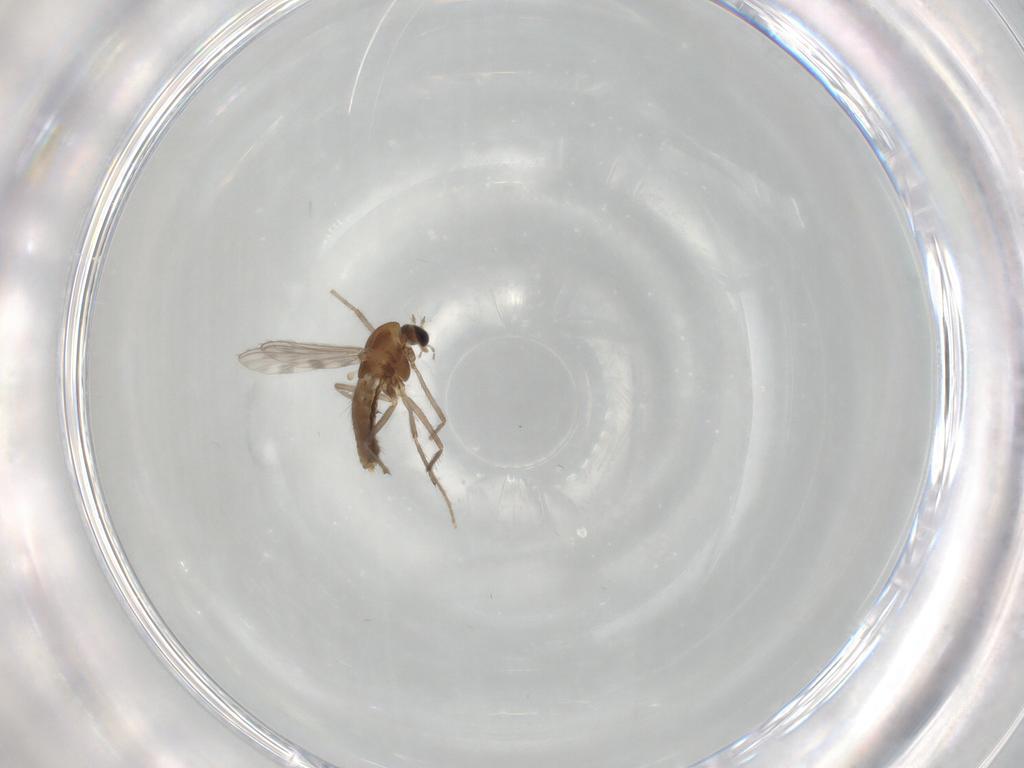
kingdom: Animalia
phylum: Arthropoda
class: Insecta
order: Diptera
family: Chironomidae
